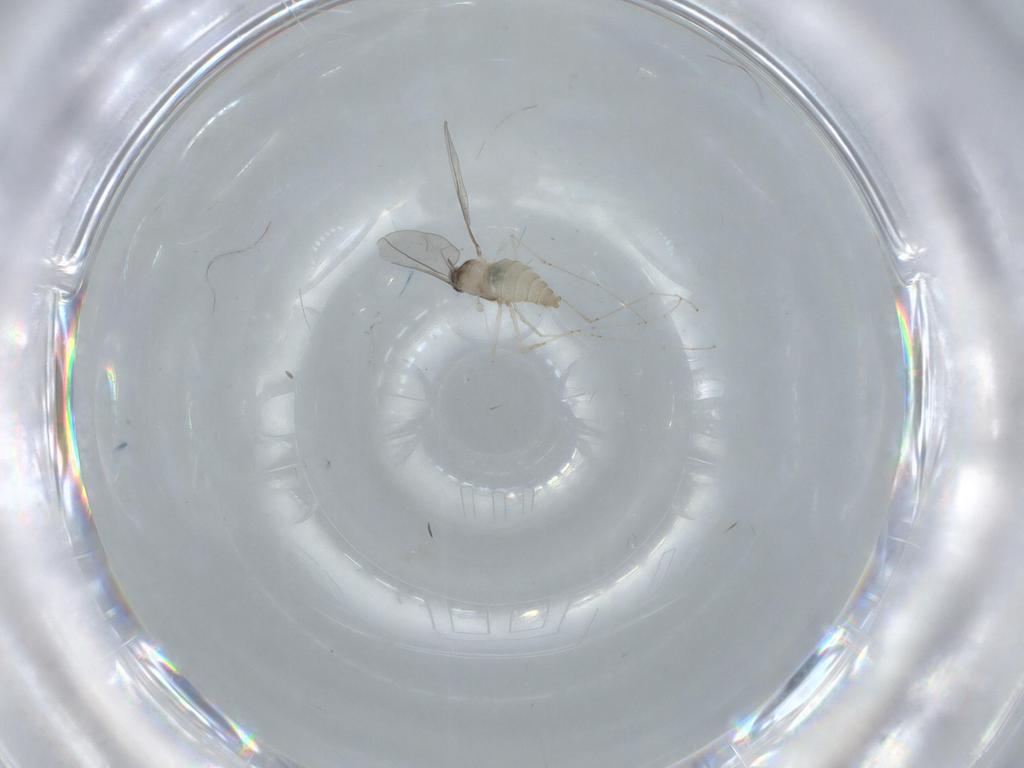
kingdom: Animalia
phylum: Arthropoda
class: Insecta
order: Diptera
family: Cecidomyiidae
